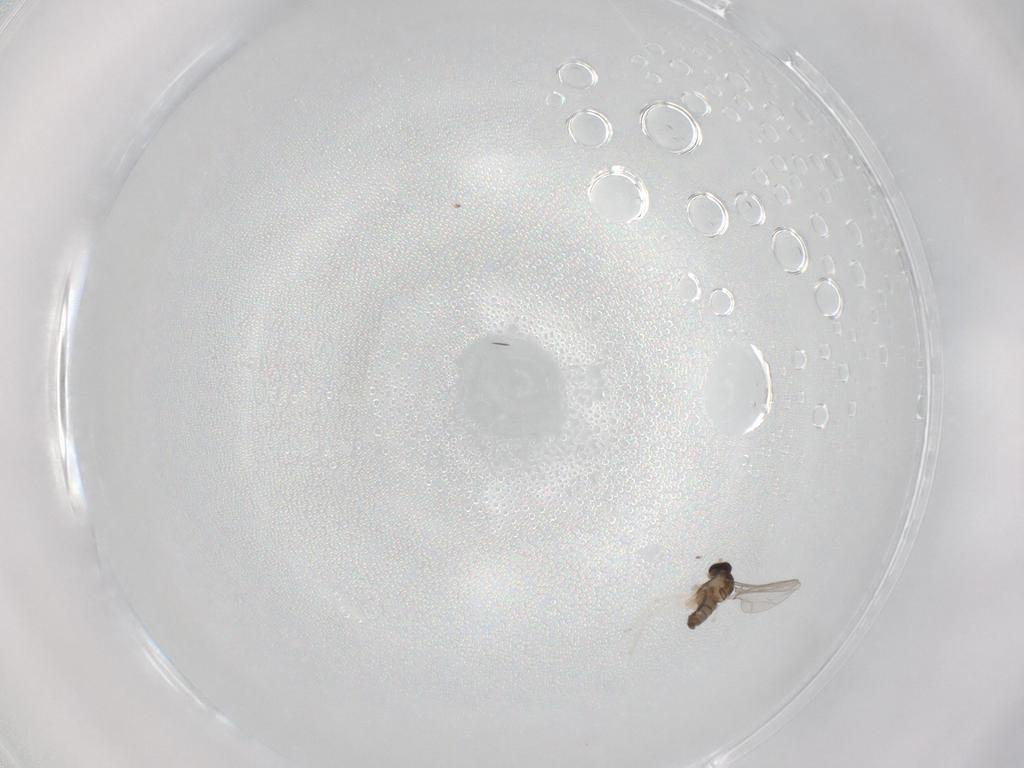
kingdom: Animalia
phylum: Arthropoda
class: Insecta
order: Diptera
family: Cecidomyiidae
